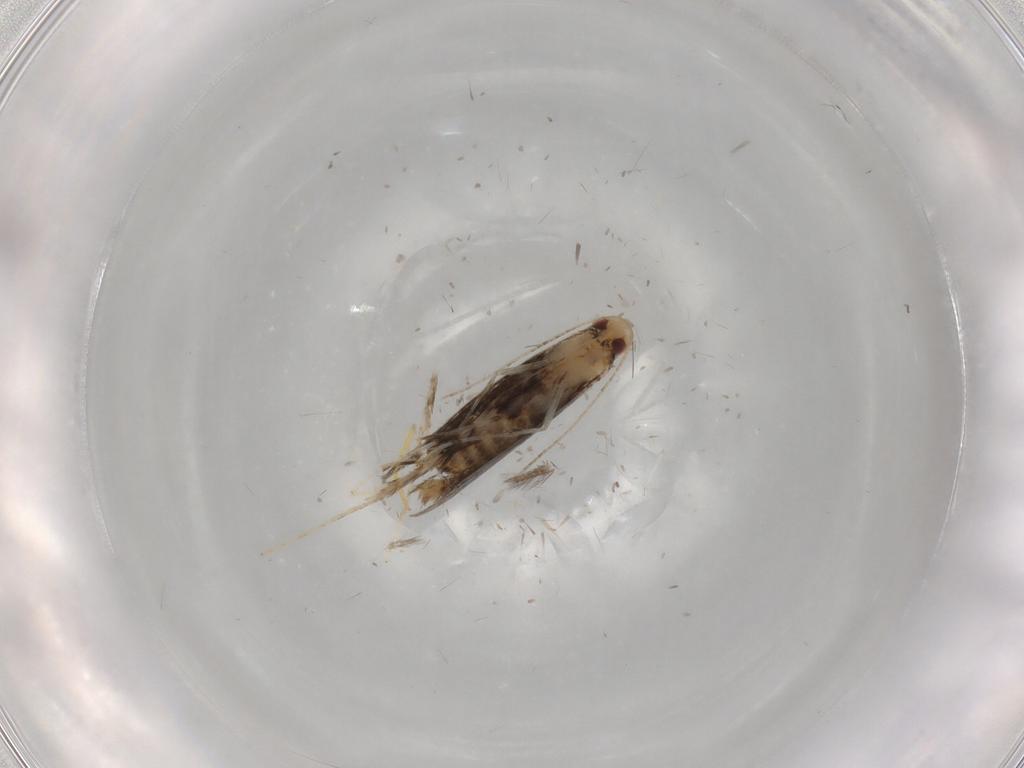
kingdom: Animalia
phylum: Arthropoda
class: Insecta
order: Lepidoptera
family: Gracillariidae
